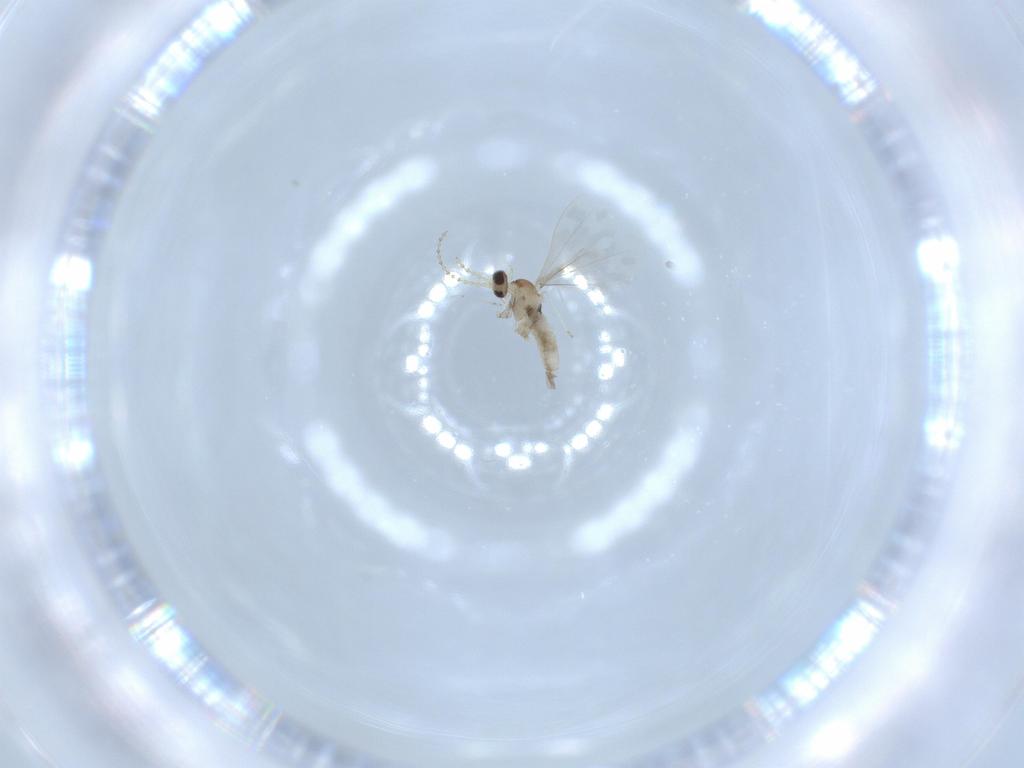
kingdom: Animalia
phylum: Arthropoda
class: Insecta
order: Diptera
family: Cecidomyiidae
